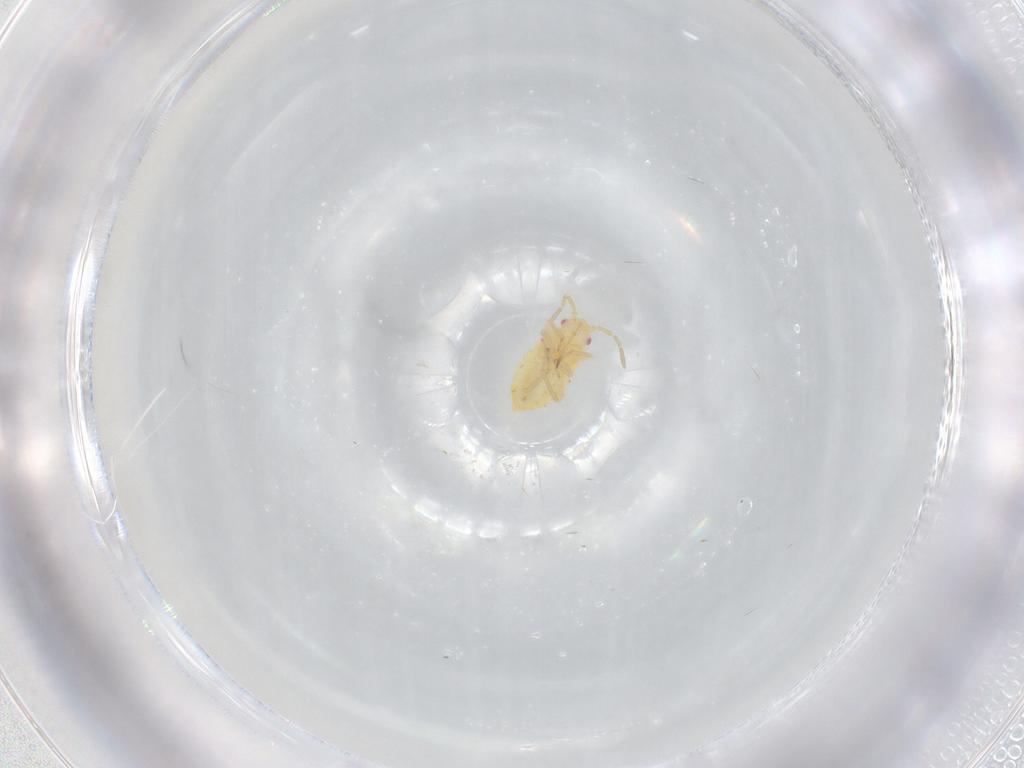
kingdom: Animalia
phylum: Arthropoda
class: Insecta
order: Hemiptera
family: Miridae
